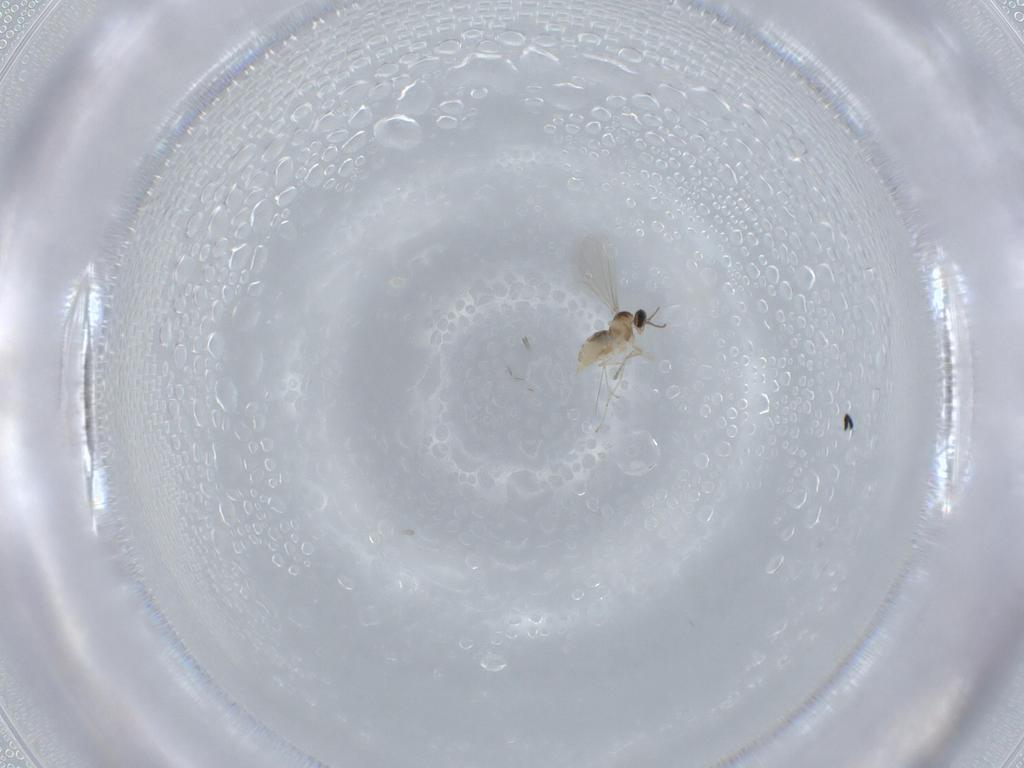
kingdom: Animalia
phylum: Arthropoda
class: Insecta
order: Diptera
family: Cecidomyiidae
